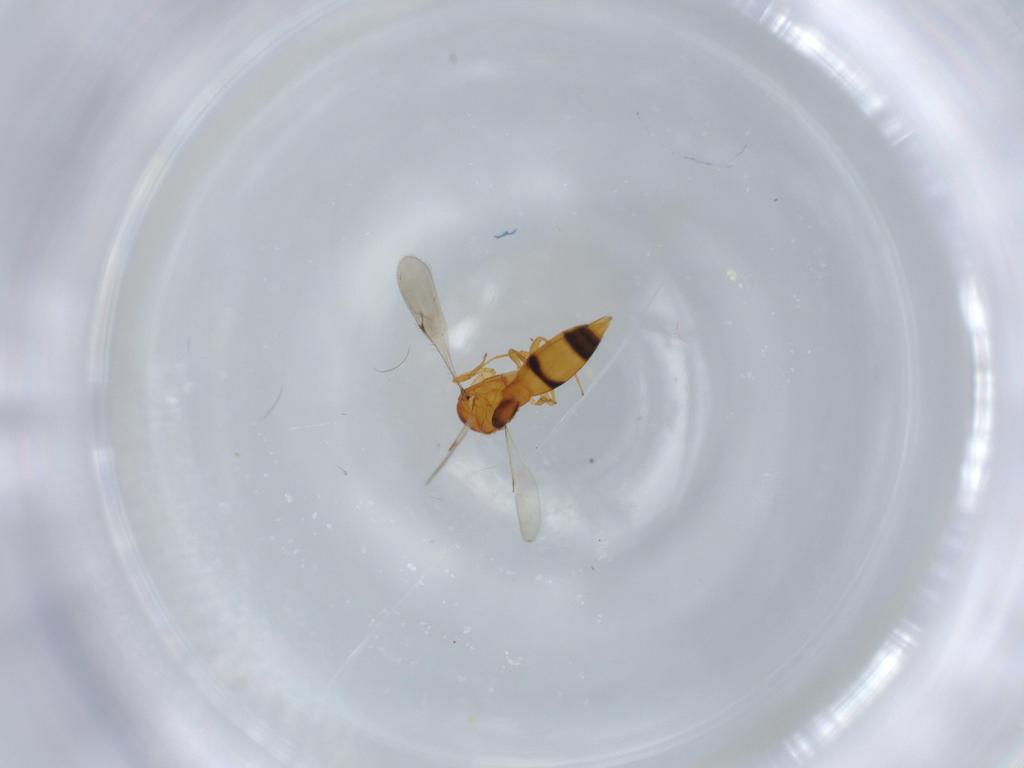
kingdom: Animalia
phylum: Arthropoda
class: Insecta
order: Hymenoptera
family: Scelionidae
